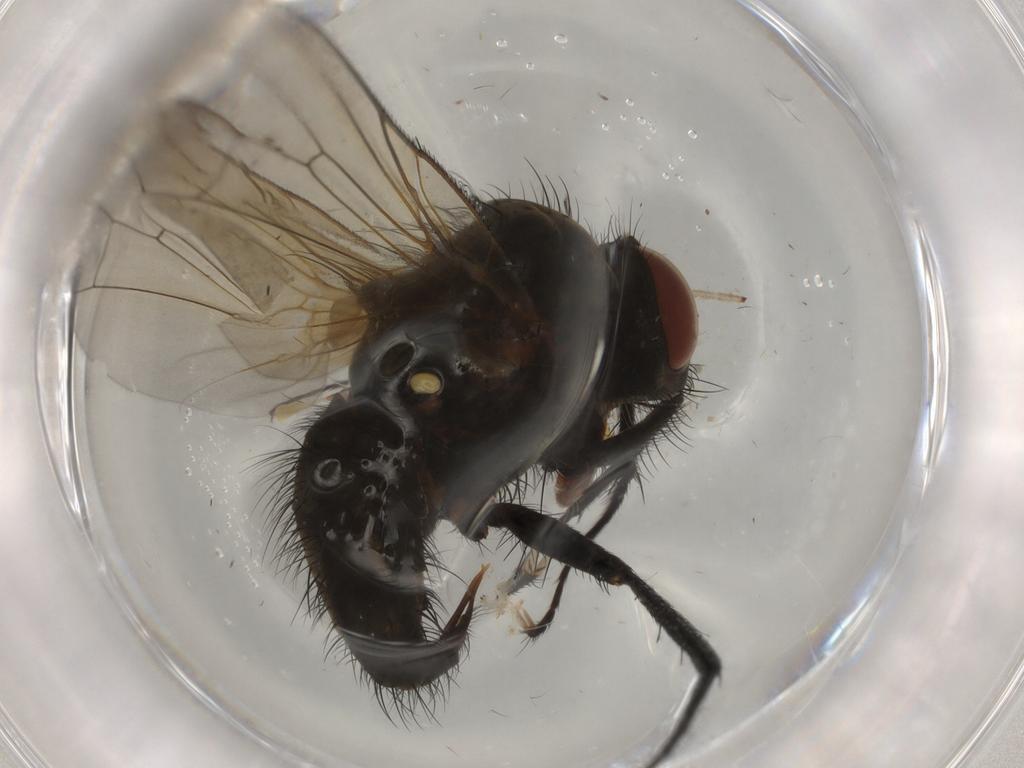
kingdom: Animalia
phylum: Arthropoda
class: Insecta
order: Diptera
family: Anthomyiidae
